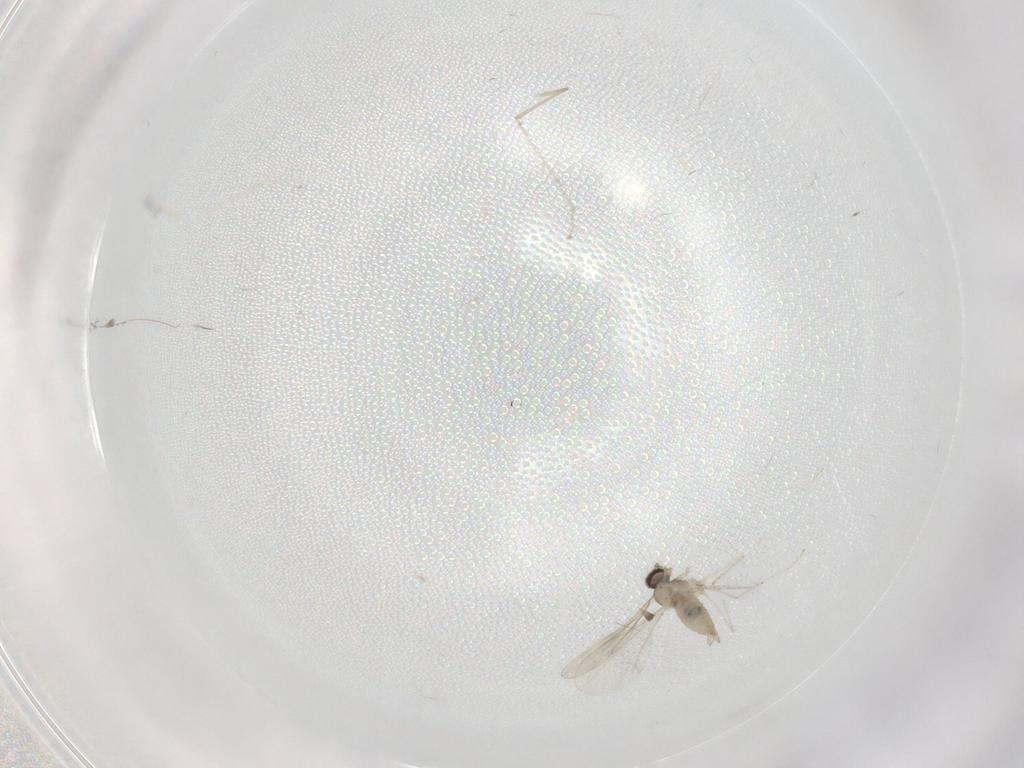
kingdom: Animalia
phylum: Arthropoda
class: Insecta
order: Diptera
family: Cecidomyiidae
